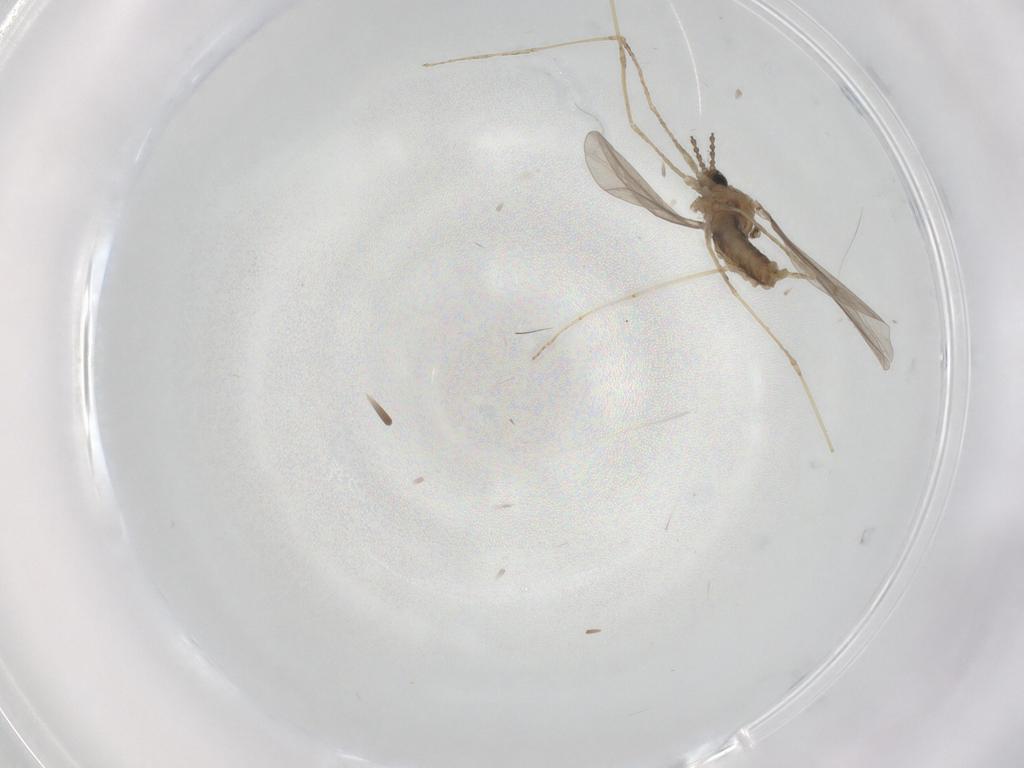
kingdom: Animalia
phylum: Arthropoda
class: Insecta
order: Diptera
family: Cecidomyiidae
